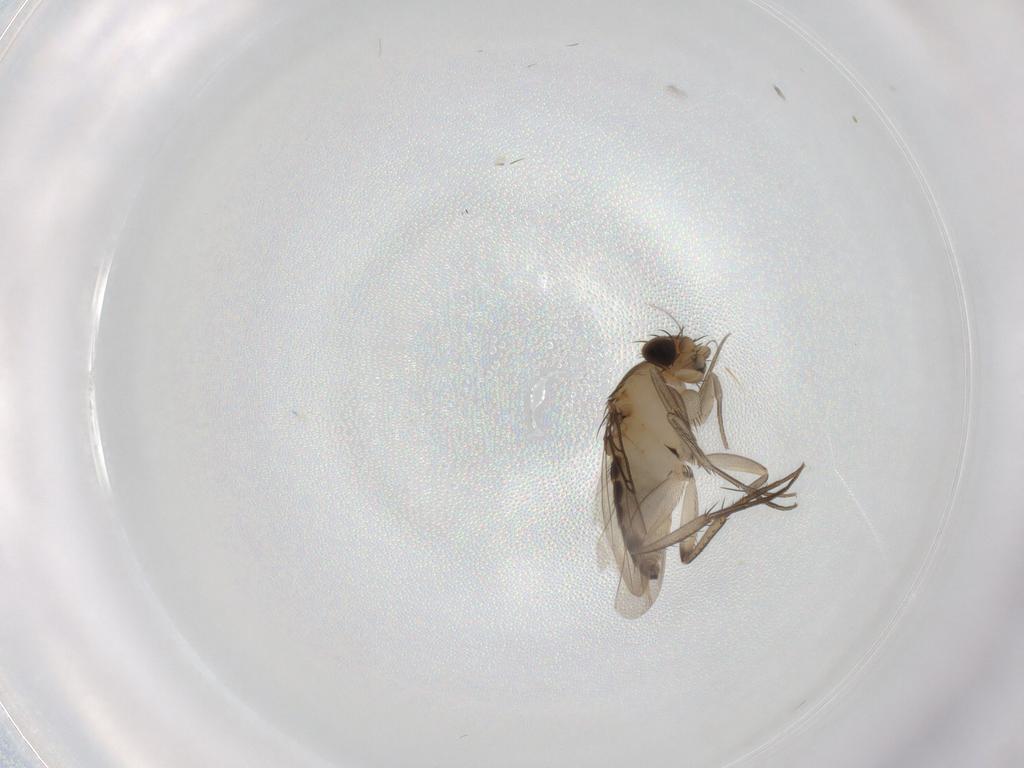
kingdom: Animalia
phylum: Arthropoda
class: Insecta
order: Diptera
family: Phoridae
